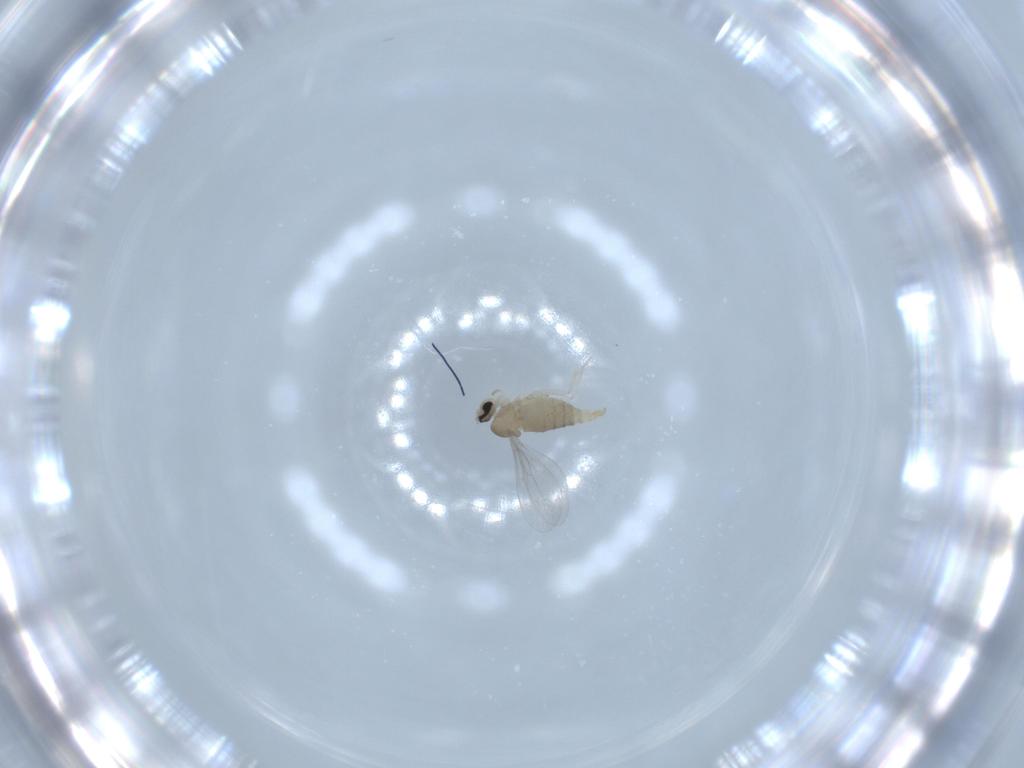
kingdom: Animalia
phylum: Arthropoda
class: Insecta
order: Diptera
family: Cecidomyiidae
